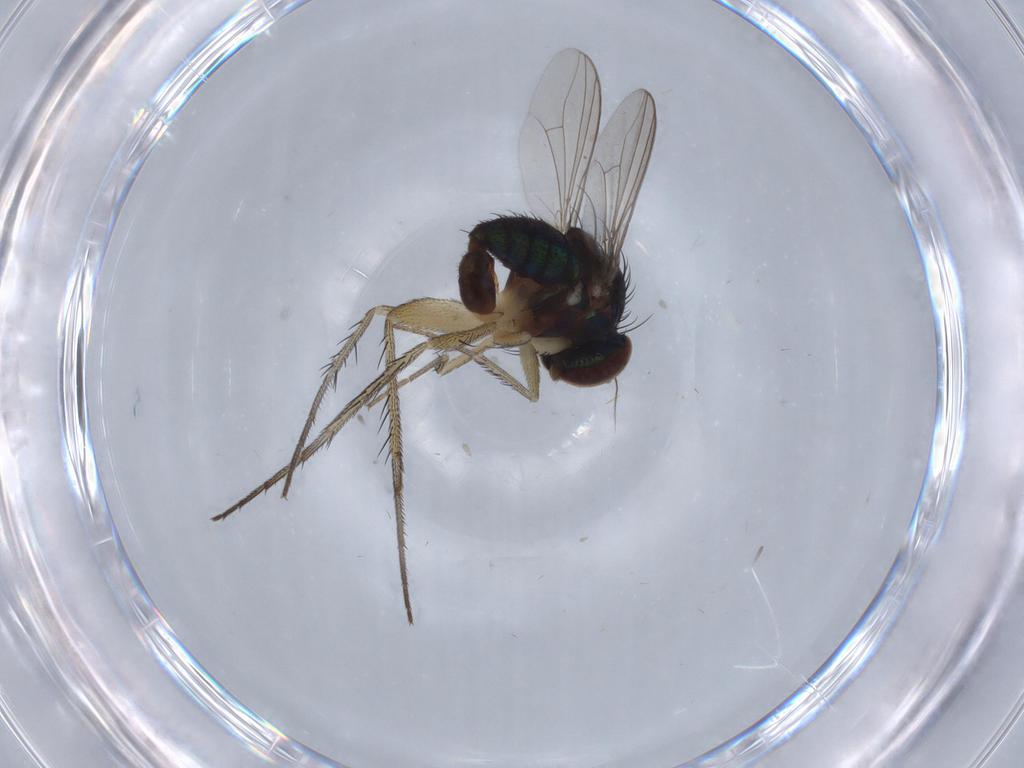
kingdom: Animalia
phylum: Arthropoda
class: Insecta
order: Diptera
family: Dolichopodidae
